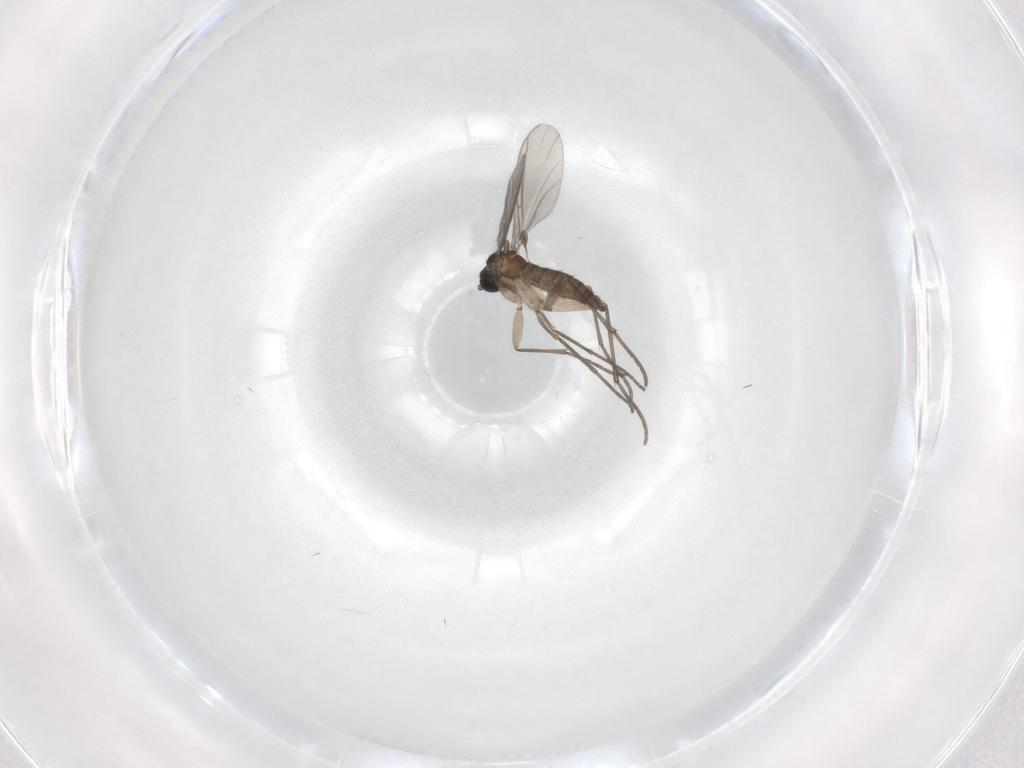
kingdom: Animalia
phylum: Arthropoda
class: Insecta
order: Diptera
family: Sciaridae
